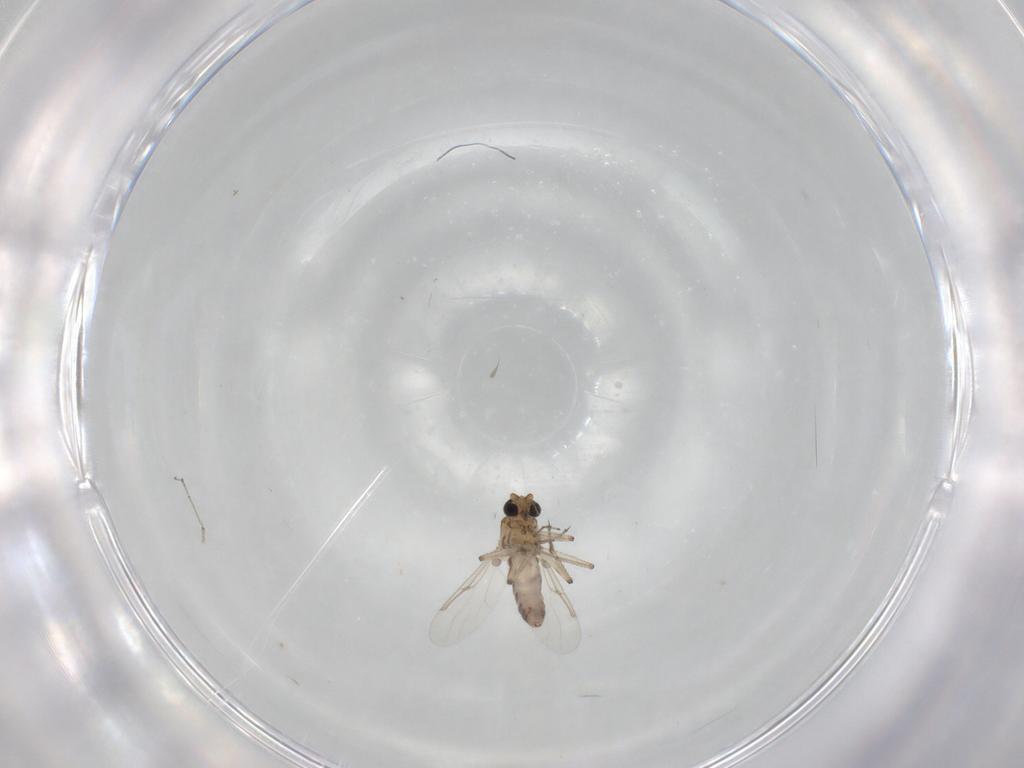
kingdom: Animalia
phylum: Arthropoda
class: Insecta
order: Diptera
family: Ceratopogonidae
